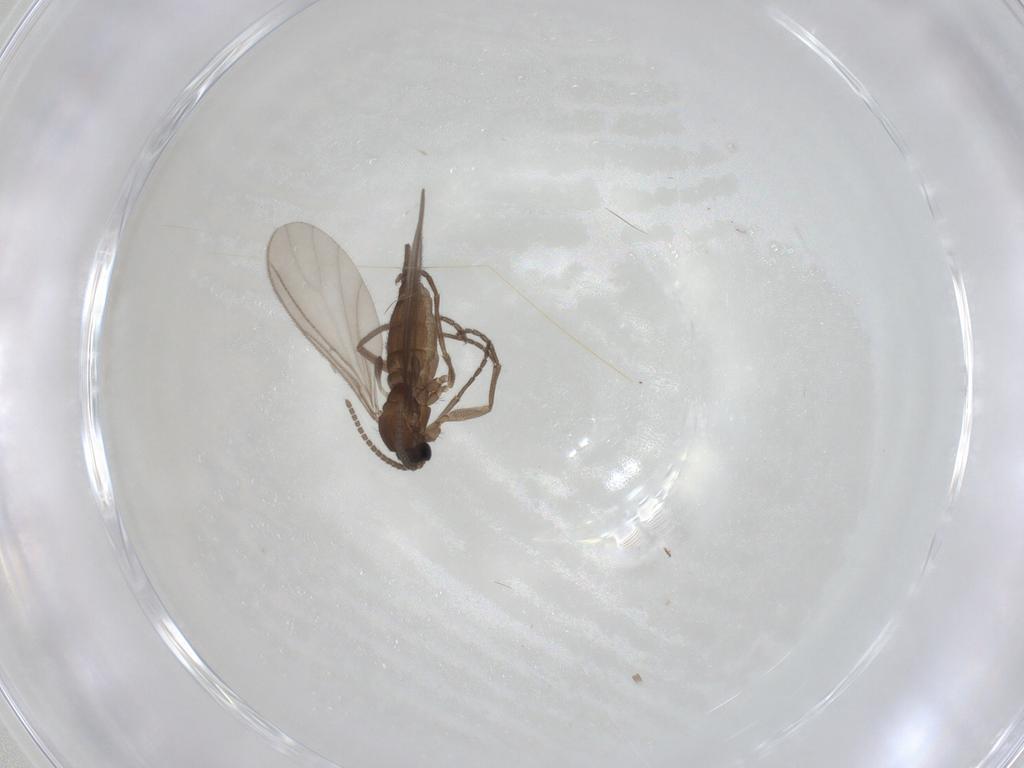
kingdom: Animalia
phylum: Arthropoda
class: Insecta
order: Diptera
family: Sciaridae
